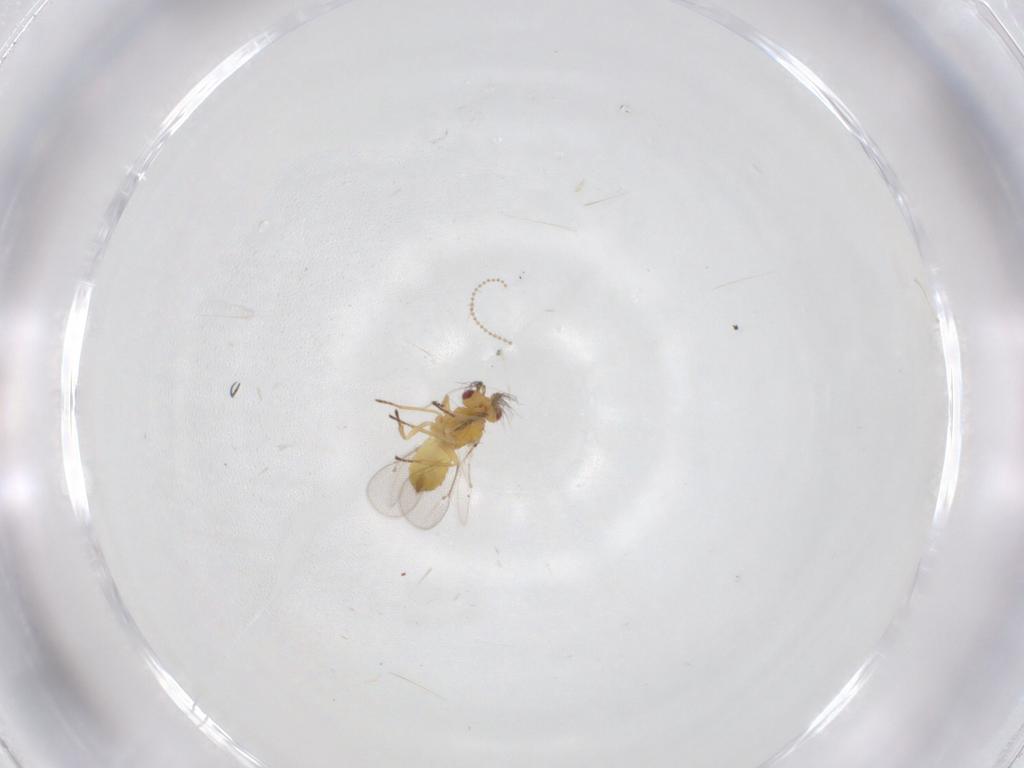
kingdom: Animalia
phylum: Arthropoda
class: Insecta
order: Hymenoptera
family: Eulophidae
